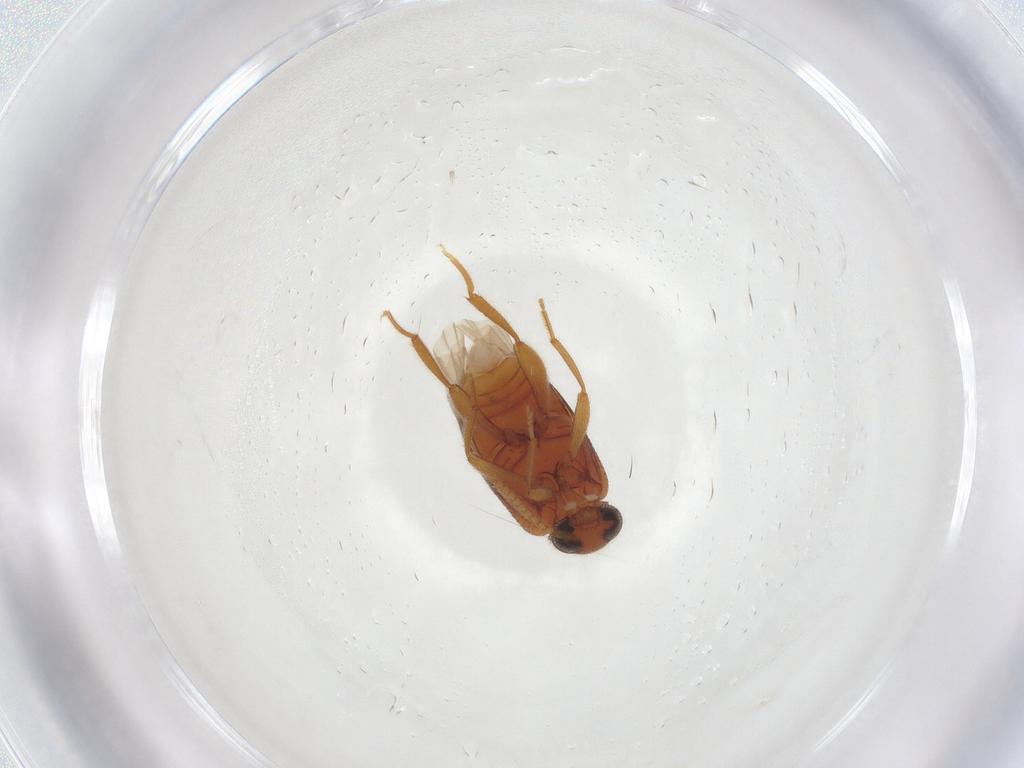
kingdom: Animalia
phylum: Arthropoda
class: Insecta
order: Coleoptera
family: Aderidae
